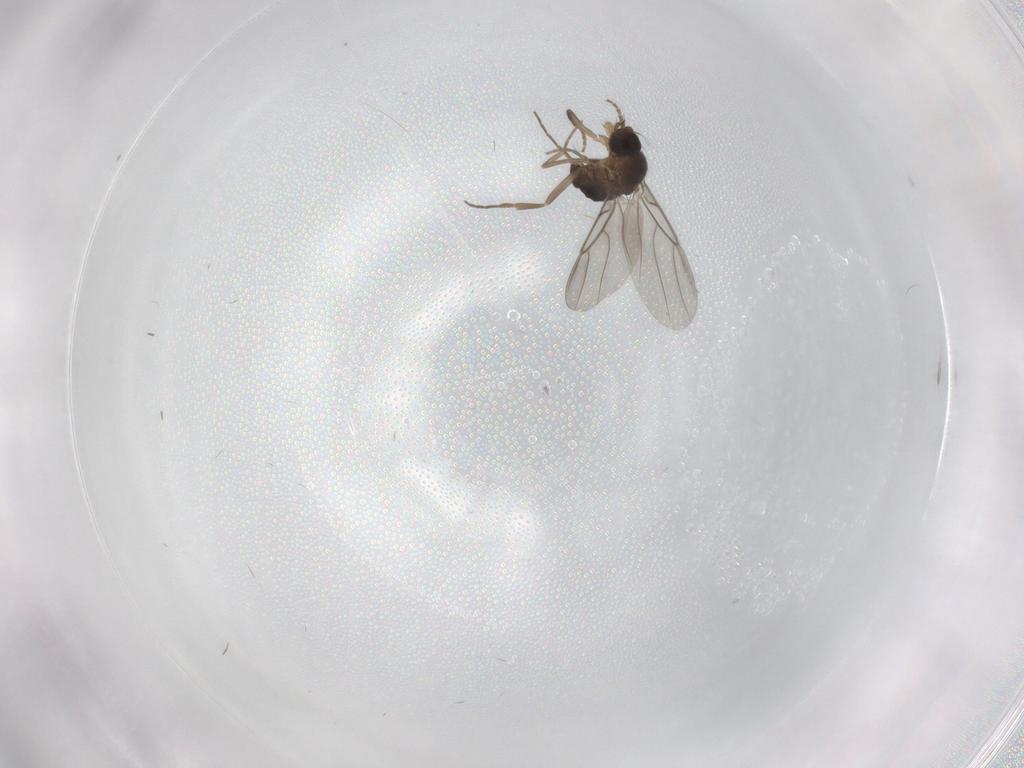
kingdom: Animalia
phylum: Arthropoda
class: Insecta
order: Diptera
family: Phoridae
